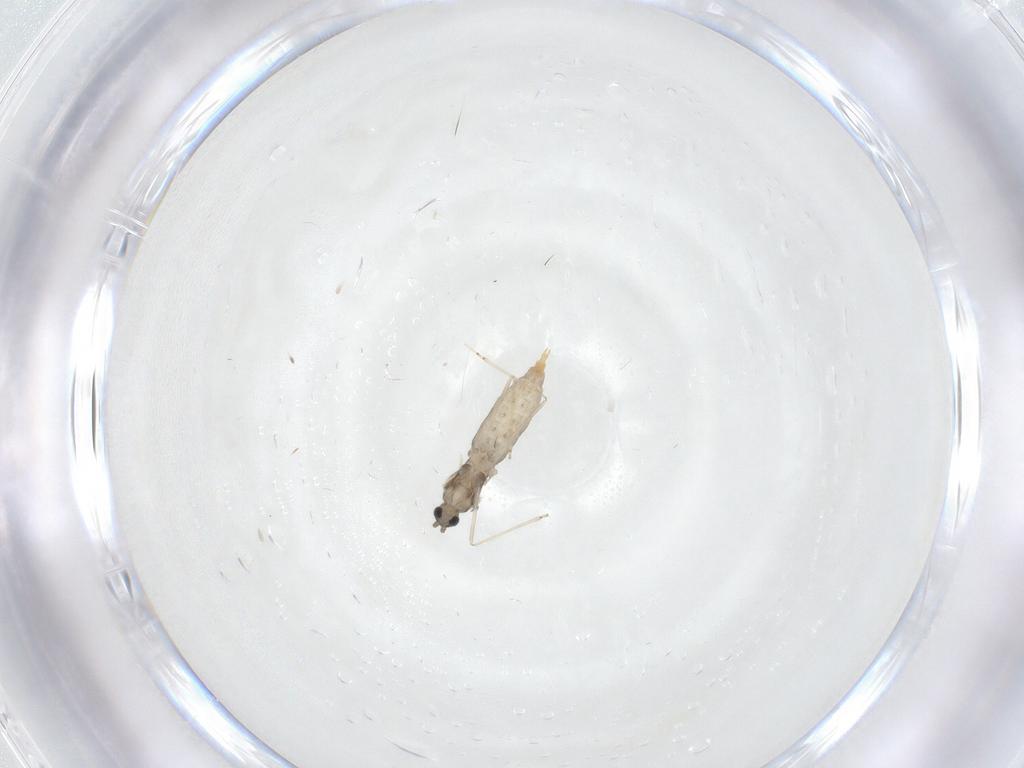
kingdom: Animalia
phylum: Arthropoda
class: Insecta
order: Diptera
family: Cecidomyiidae
